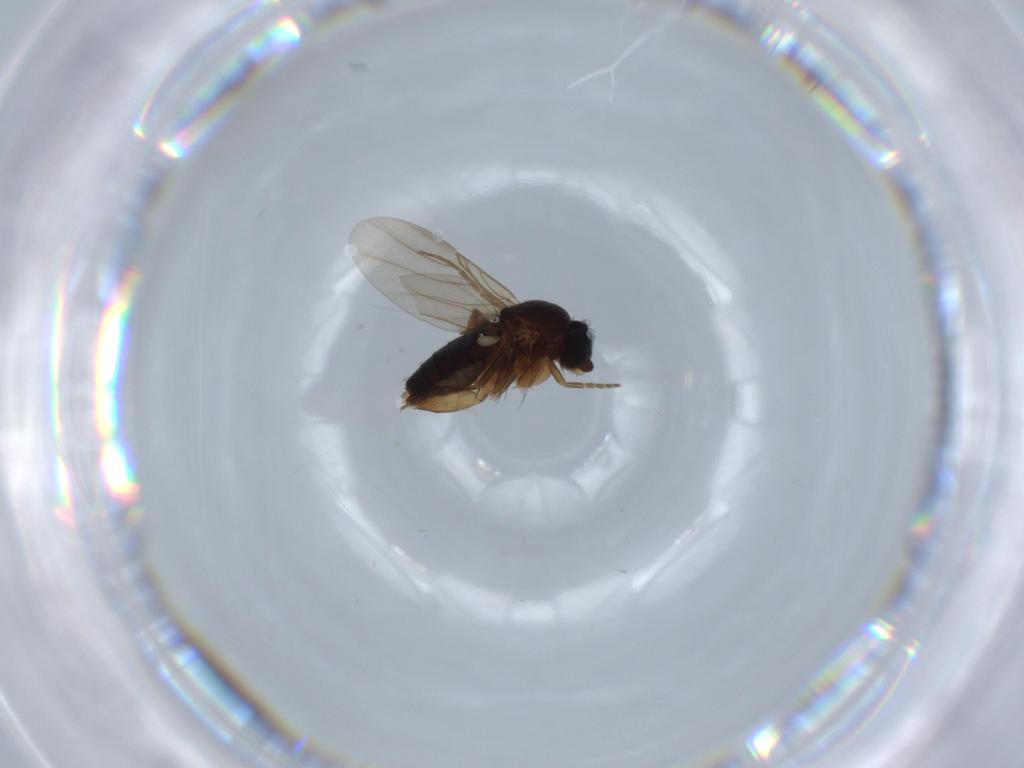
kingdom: Animalia
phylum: Arthropoda
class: Insecta
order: Diptera
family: Phoridae
